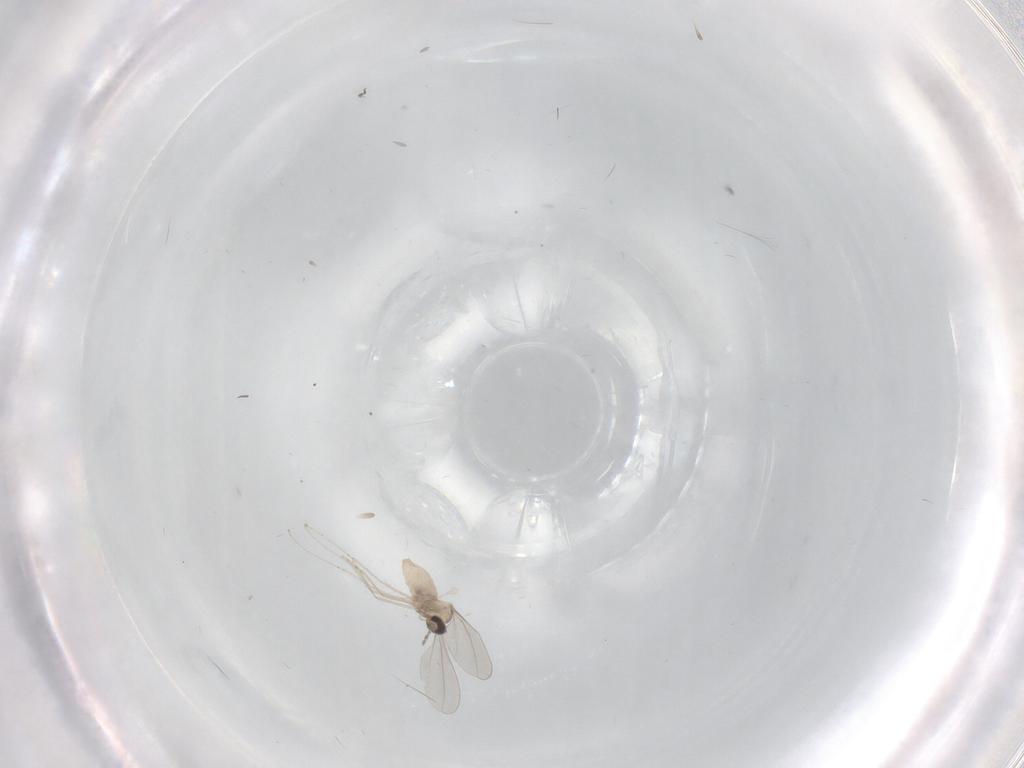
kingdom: Animalia
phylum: Arthropoda
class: Insecta
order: Diptera
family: Cecidomyiidae
